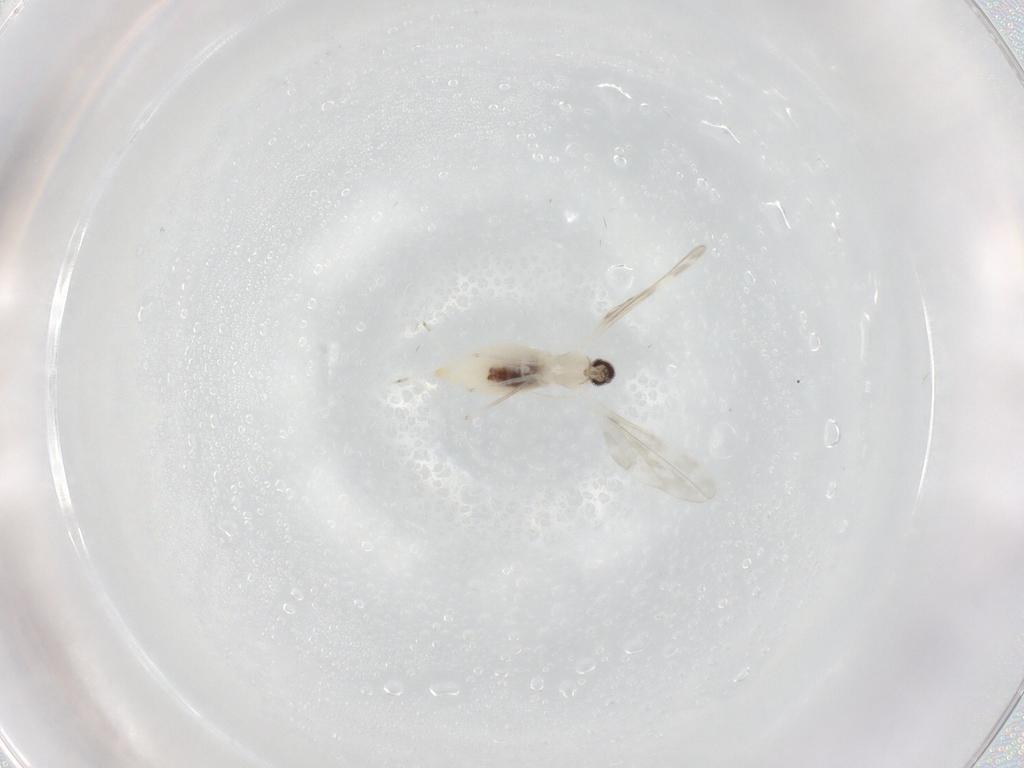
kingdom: Animalia
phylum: Arthropoda
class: Insecta
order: Diptera
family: Cecidomyiidae
